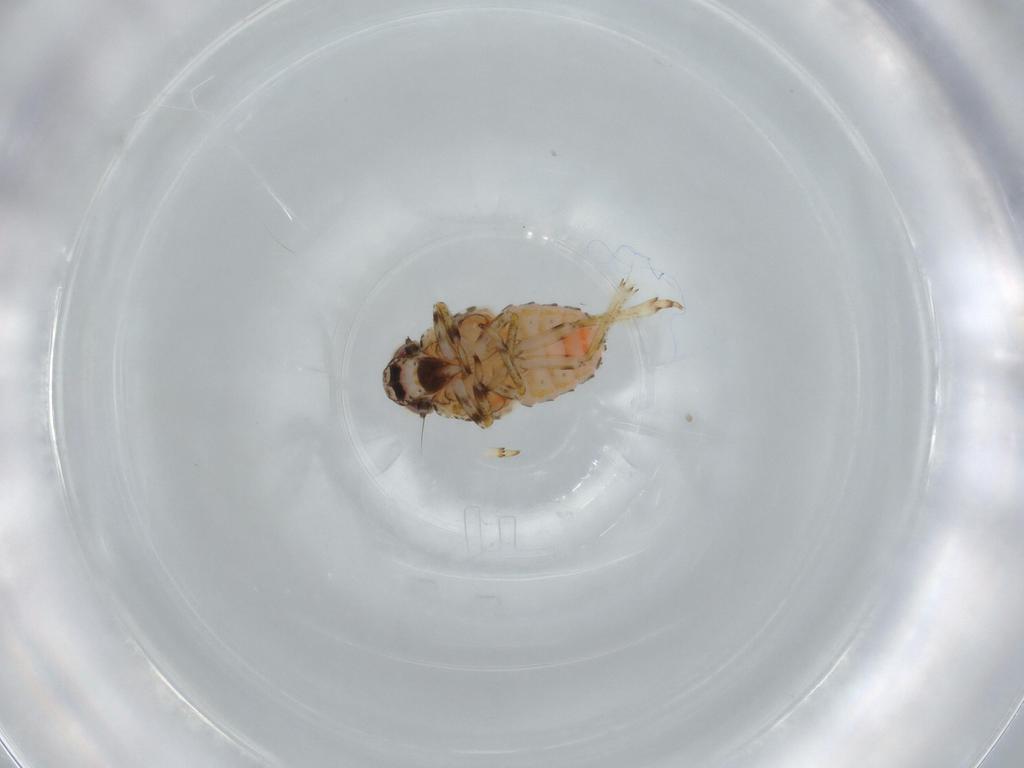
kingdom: Animalia
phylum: Arthropoda
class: Insecta
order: Hemiptera
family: Issidae
